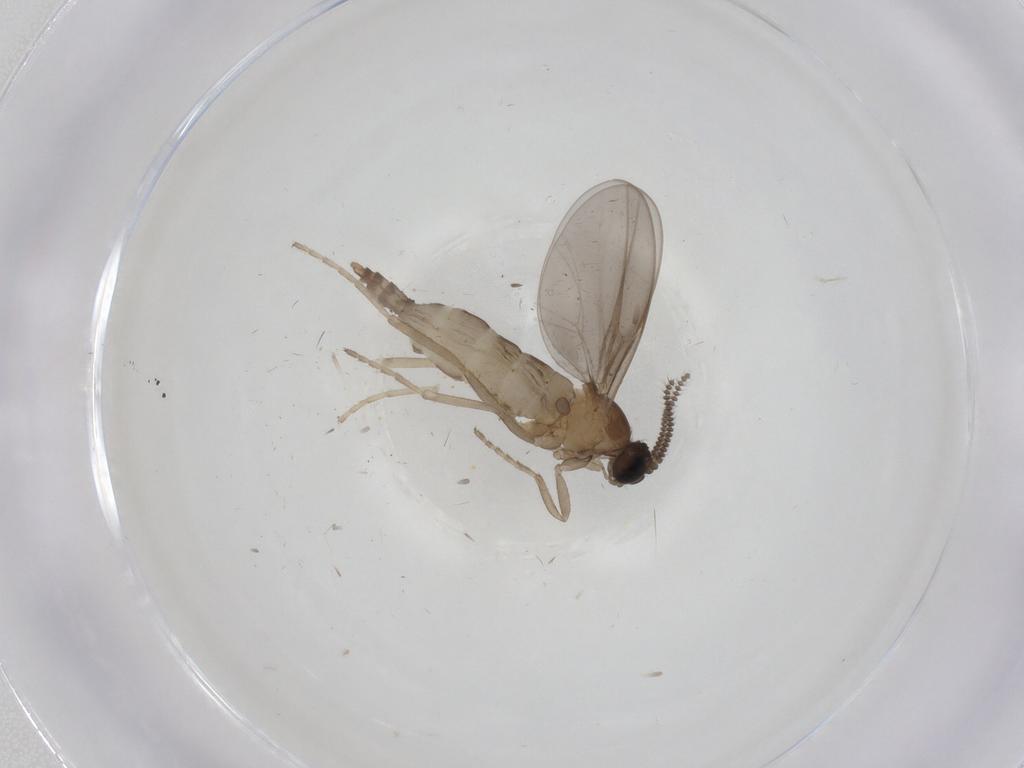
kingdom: Animalia
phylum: Arthropoda
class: Insecta
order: Diptera
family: Cecidomyiidae
